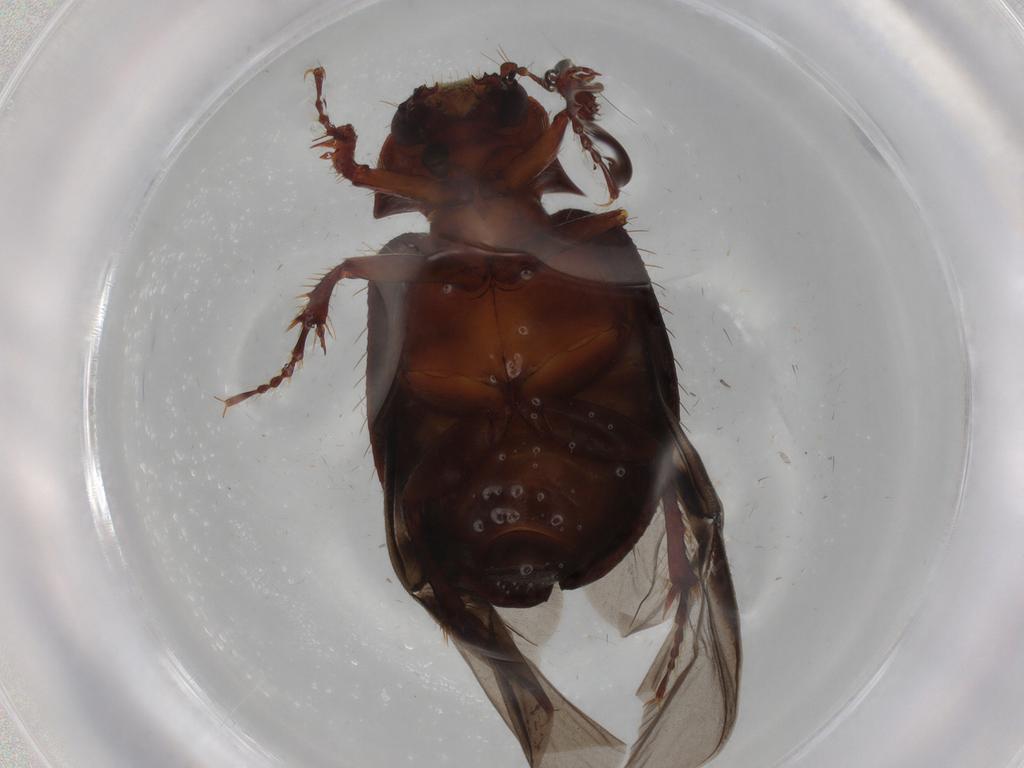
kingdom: Animalia
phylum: Arthropoda
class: Insecta
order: Coleoptera
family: Hybosoridae
